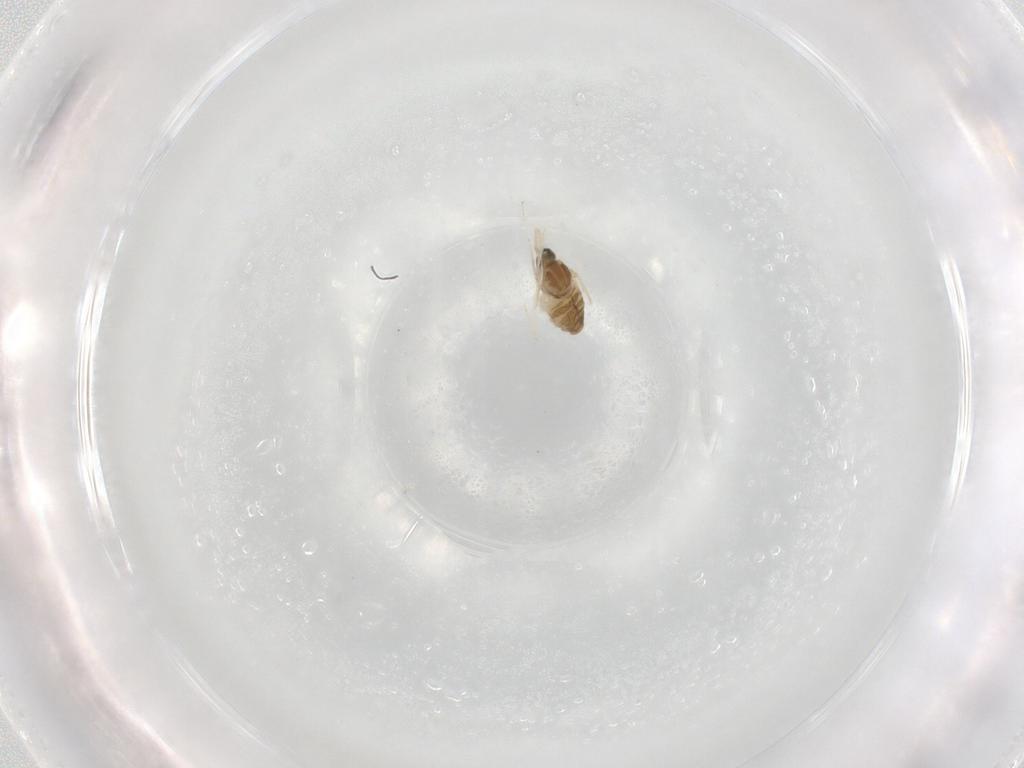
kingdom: Animalia
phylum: Arthropoda
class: Insecta
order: Diptera
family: Cecidomyiidae
